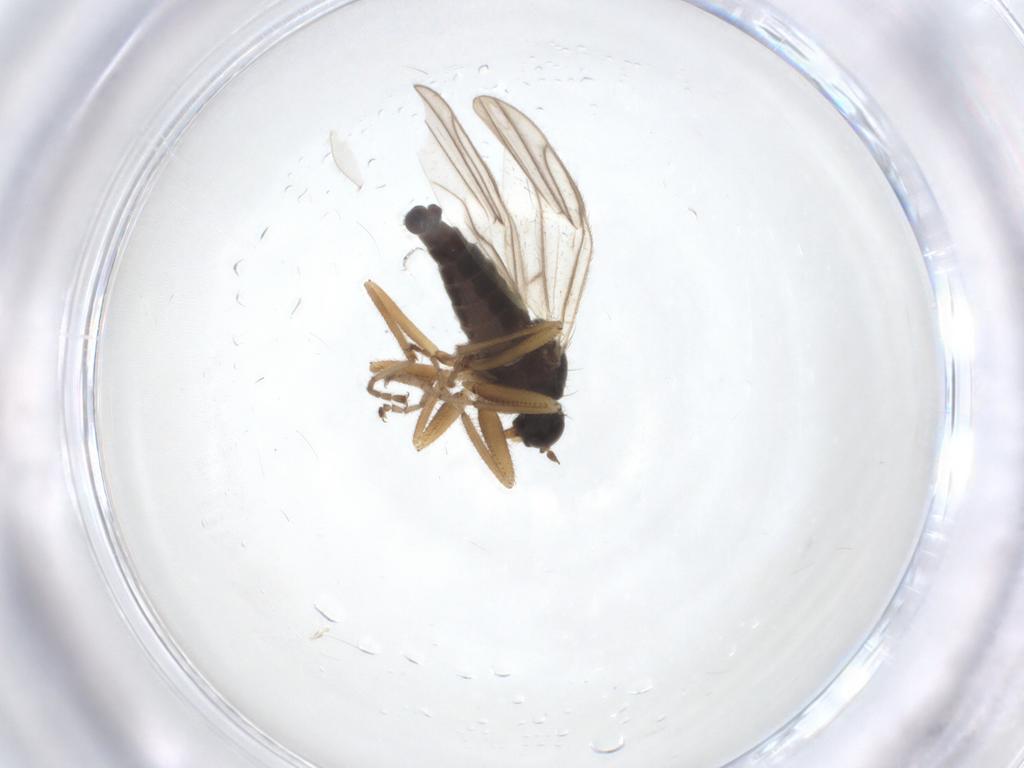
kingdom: Animalia
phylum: Arthropoda
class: Insecta
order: Diptera
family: Hybotidae
